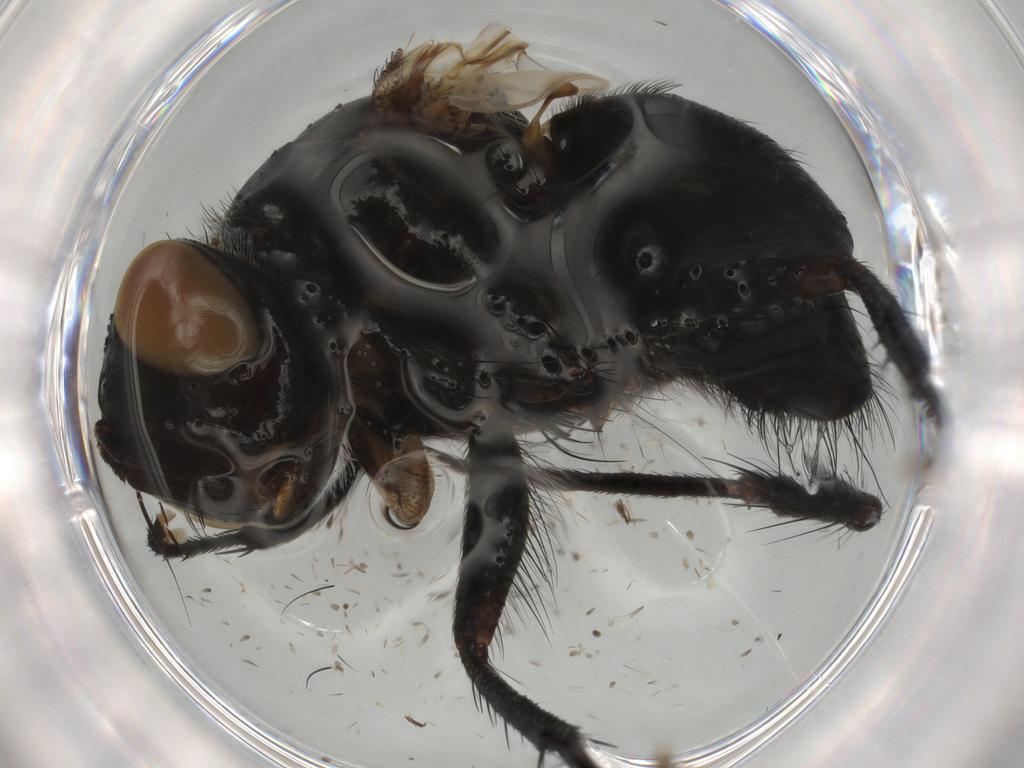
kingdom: Animalia
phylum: Arthropoda
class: Insecta
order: Diptera
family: Tachinidae
